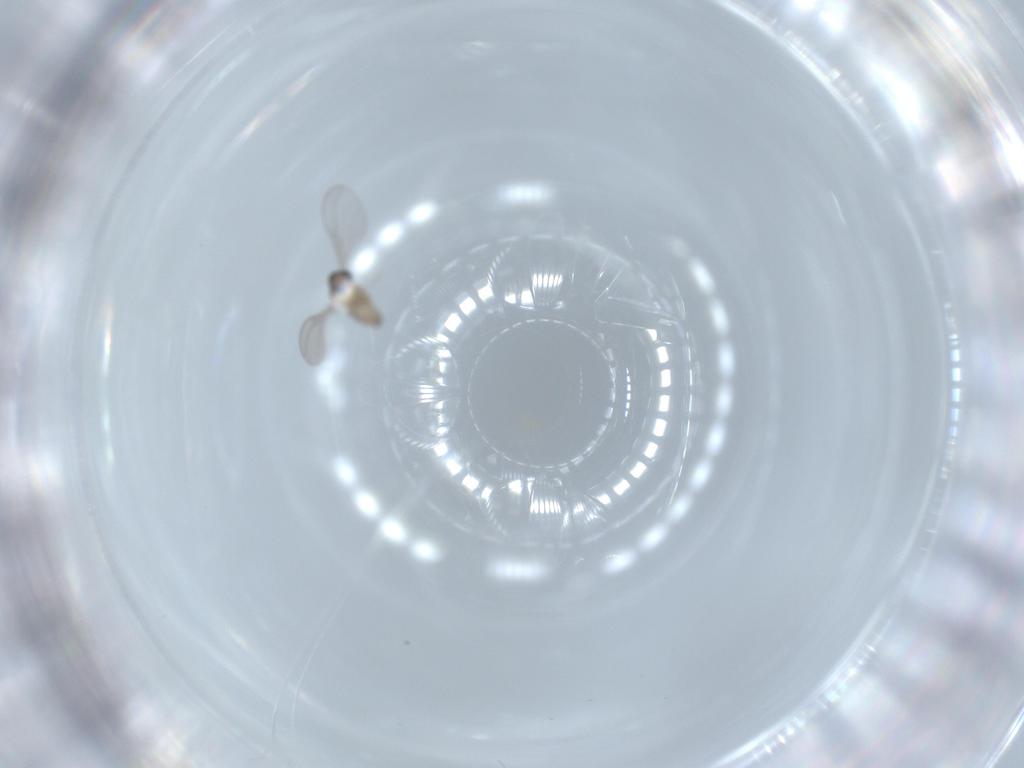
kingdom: Animalia
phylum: Arthropoda
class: Insecta
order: Diptera
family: Cecidomyiidae
